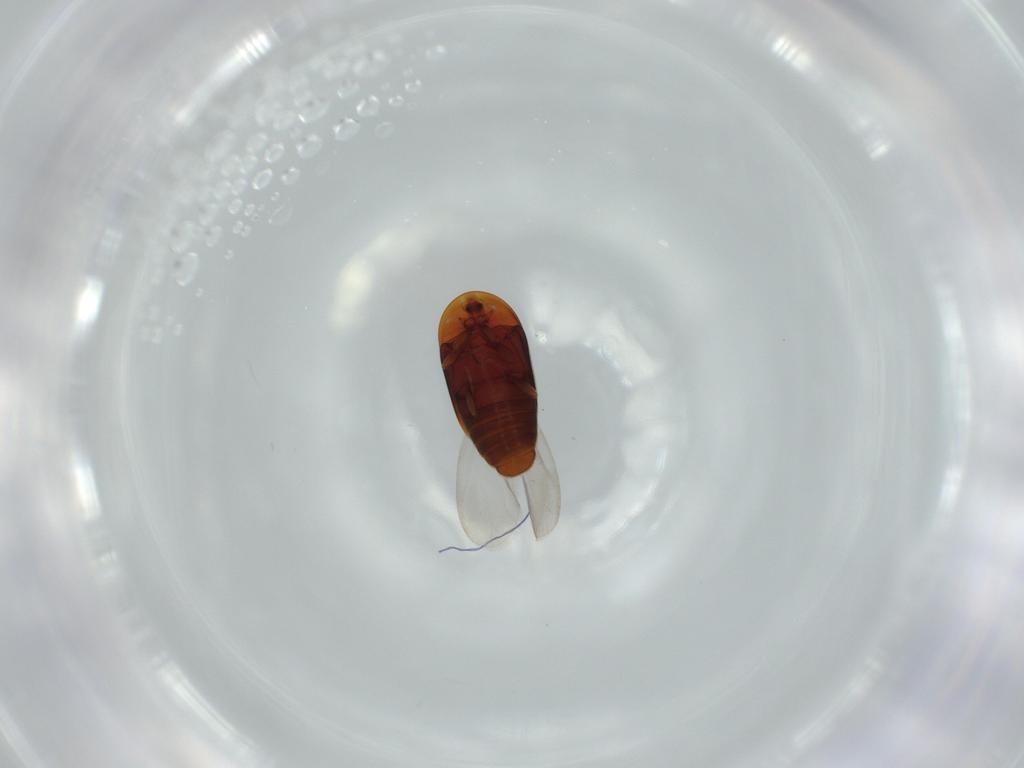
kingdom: Animalia
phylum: Arthropoda
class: Insecta
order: Coleoptera
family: Corylophidae
